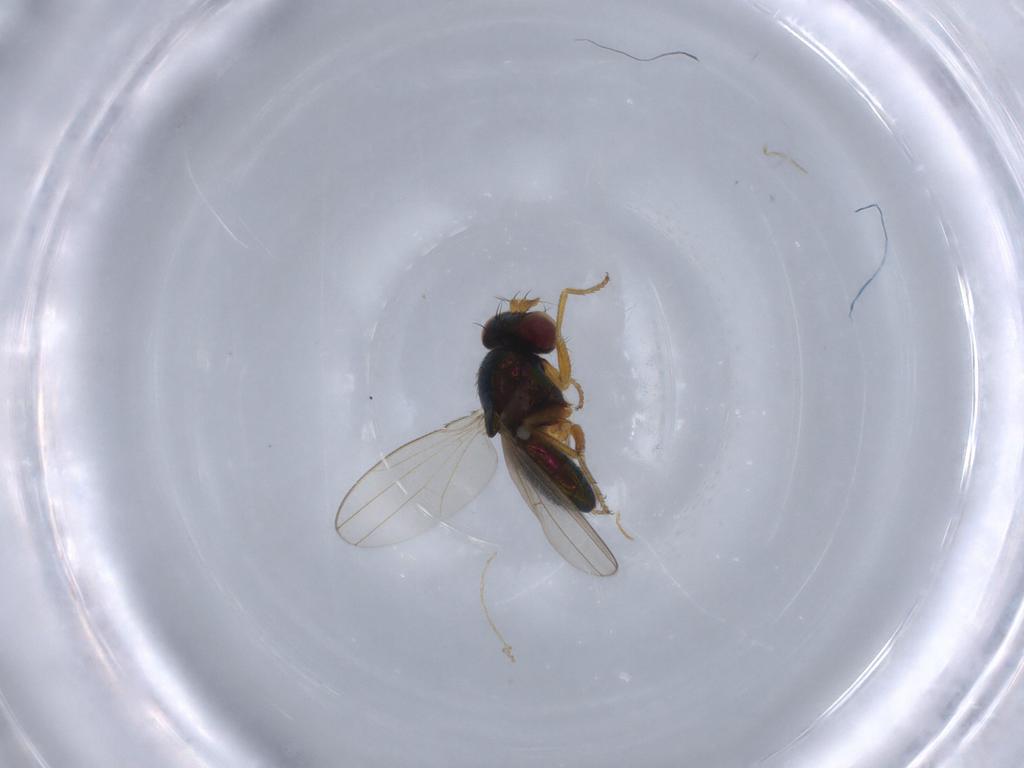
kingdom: Animalia
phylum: Arthropoda
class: Insecta
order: Diptera
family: Ephydridae
